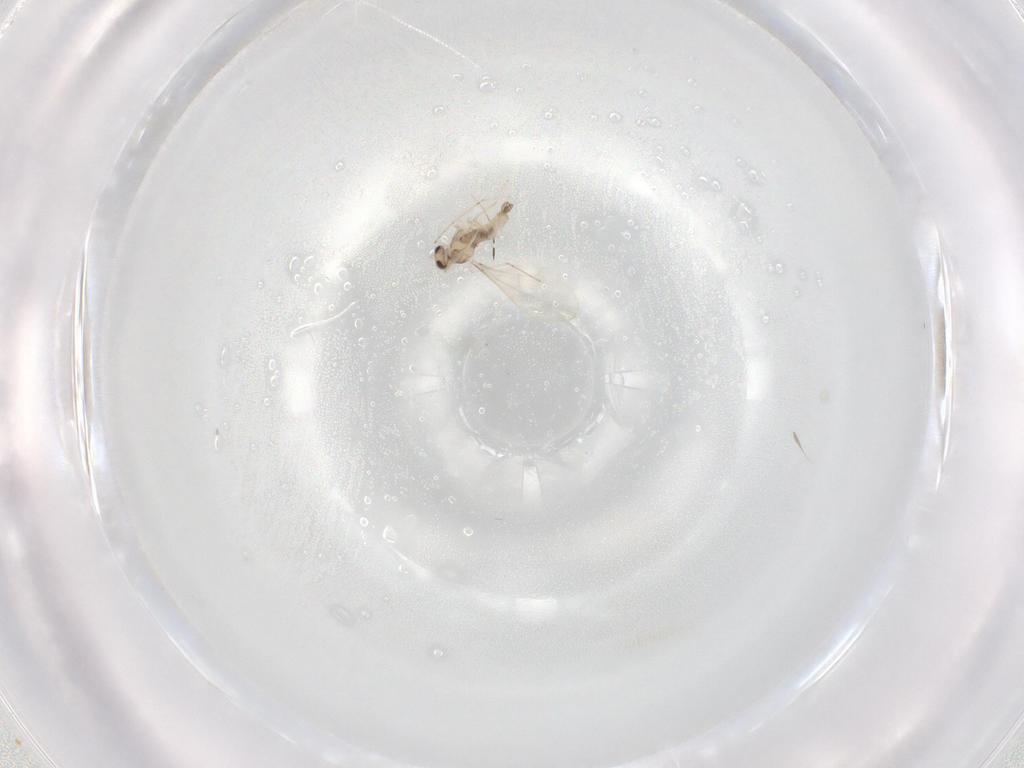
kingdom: Animalia
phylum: Arthropoda
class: Insecta
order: Diptera
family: Cecidomyiidae
